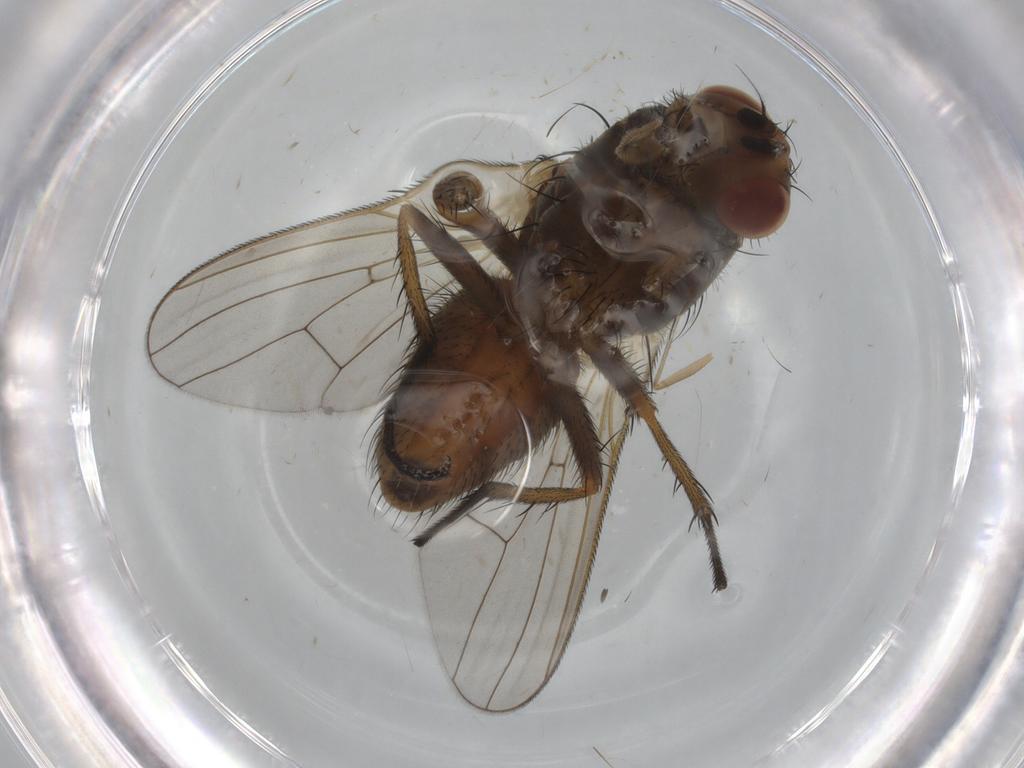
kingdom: Animalia
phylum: Arthropoda
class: Insecta
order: Diptera
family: Anthomyiidae
